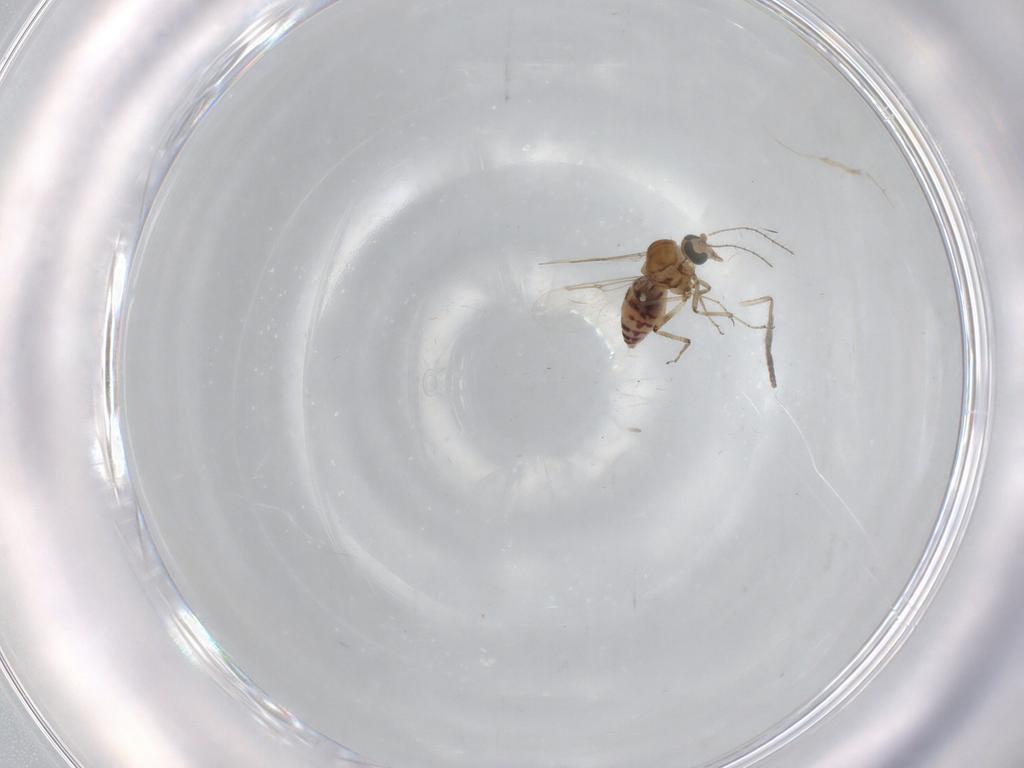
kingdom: Animalia
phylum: Arthropoda
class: Insecta
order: Diptera
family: Ceratopogonidae
